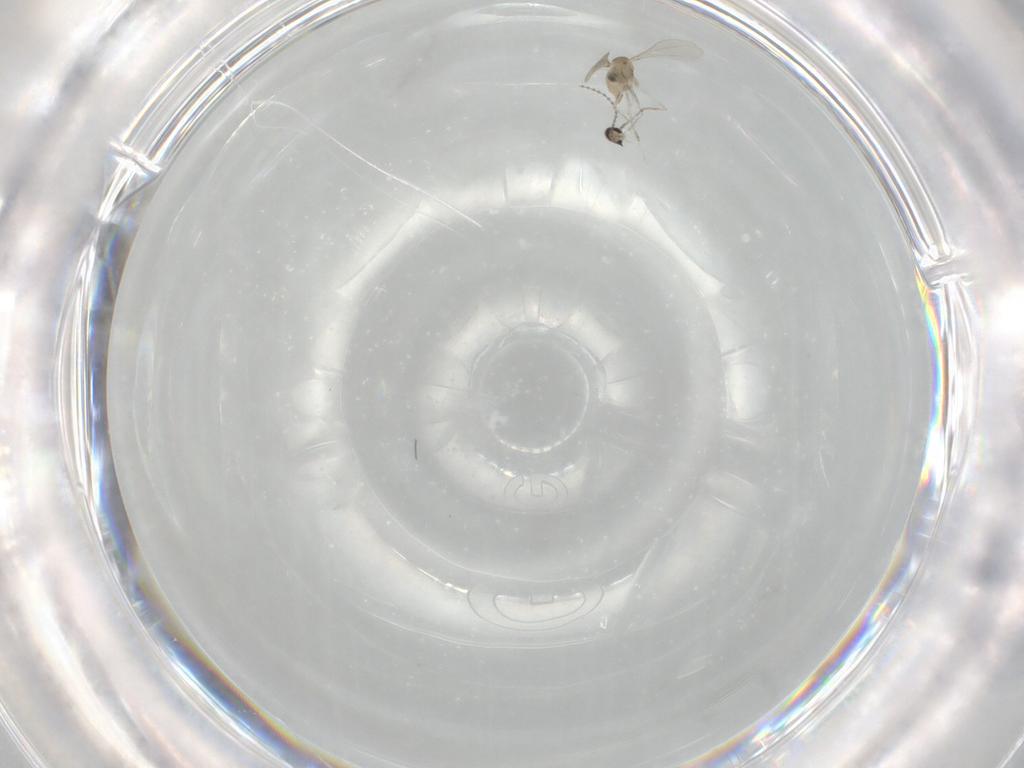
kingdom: Animalia
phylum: Arthropoda
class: Insecta
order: Diptera
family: Cecidomyiidae
